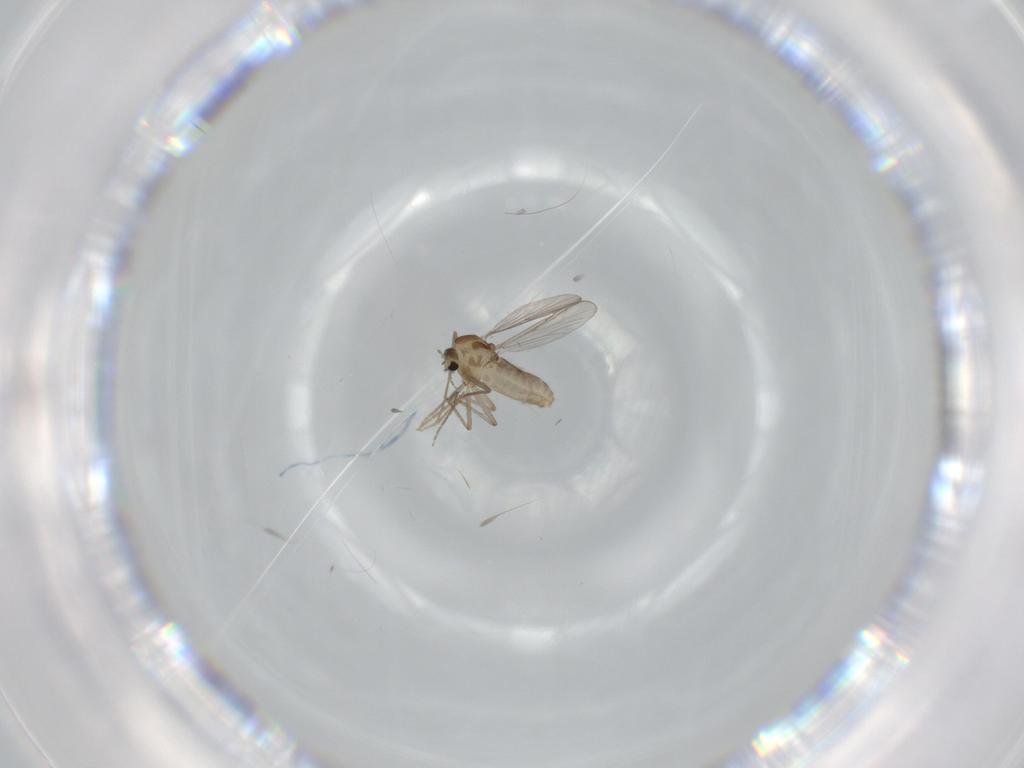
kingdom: Animalia
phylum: Arthropoda
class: Insecta
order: Diptera
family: Chironomidae
